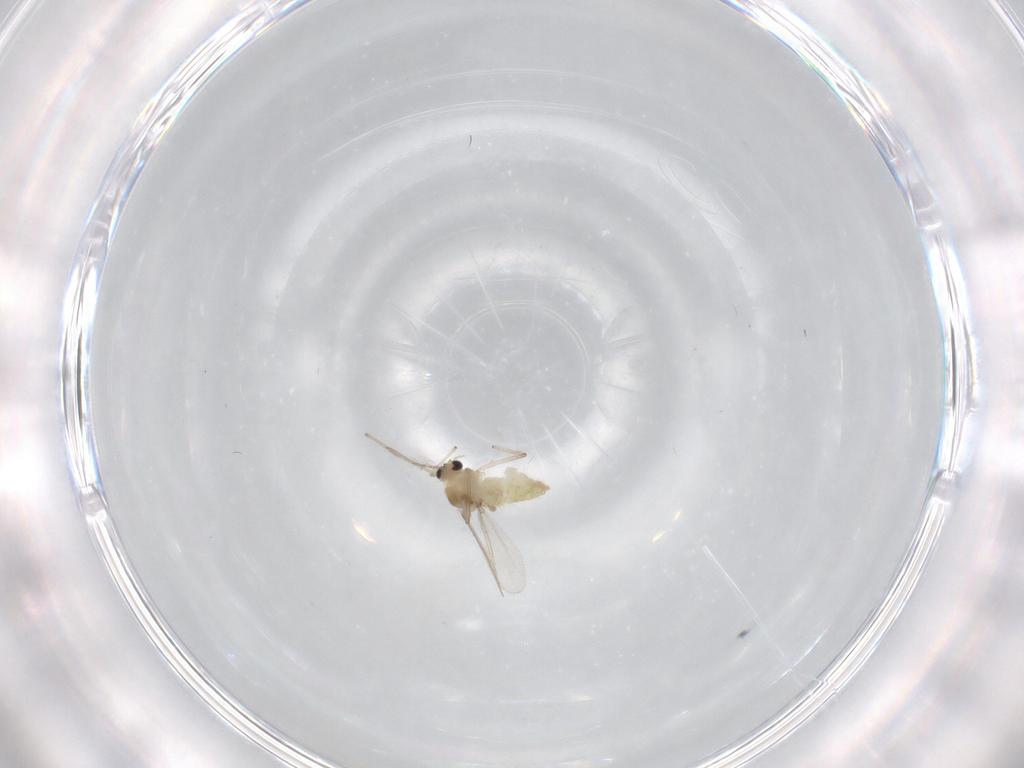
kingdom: Animalia
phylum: Arthropoda
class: Insecta
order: Diptera
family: Chironomidae
